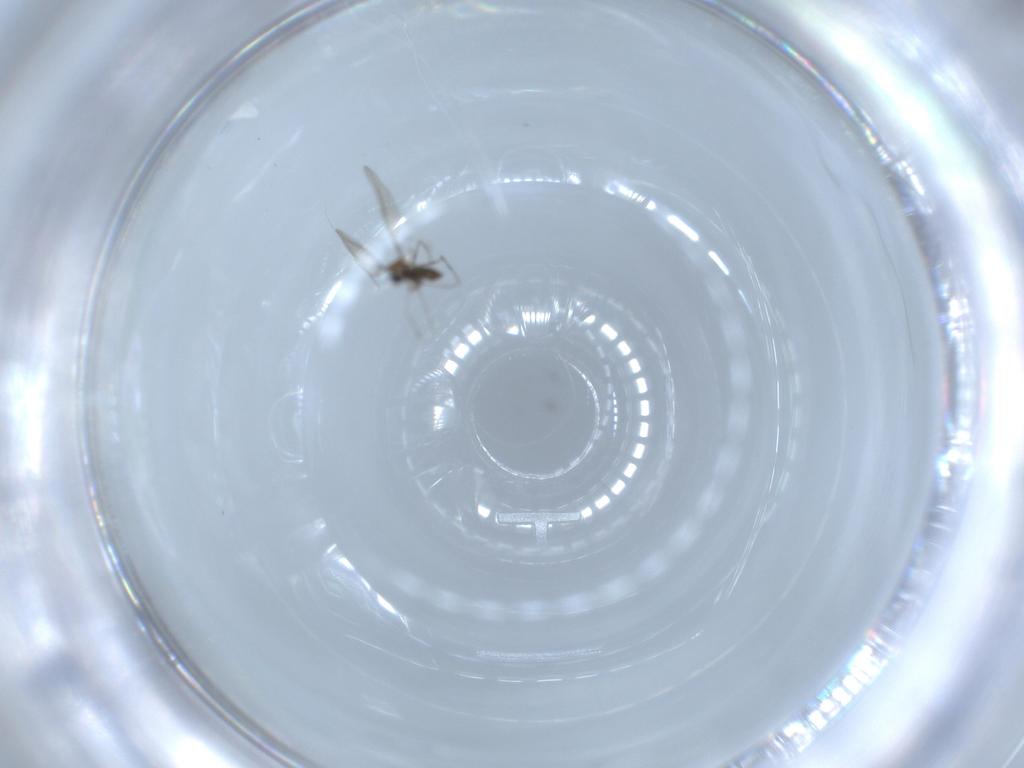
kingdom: Animalia
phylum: Arthropoda
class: Insecta
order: Diptera
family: Cecidomyiidae
